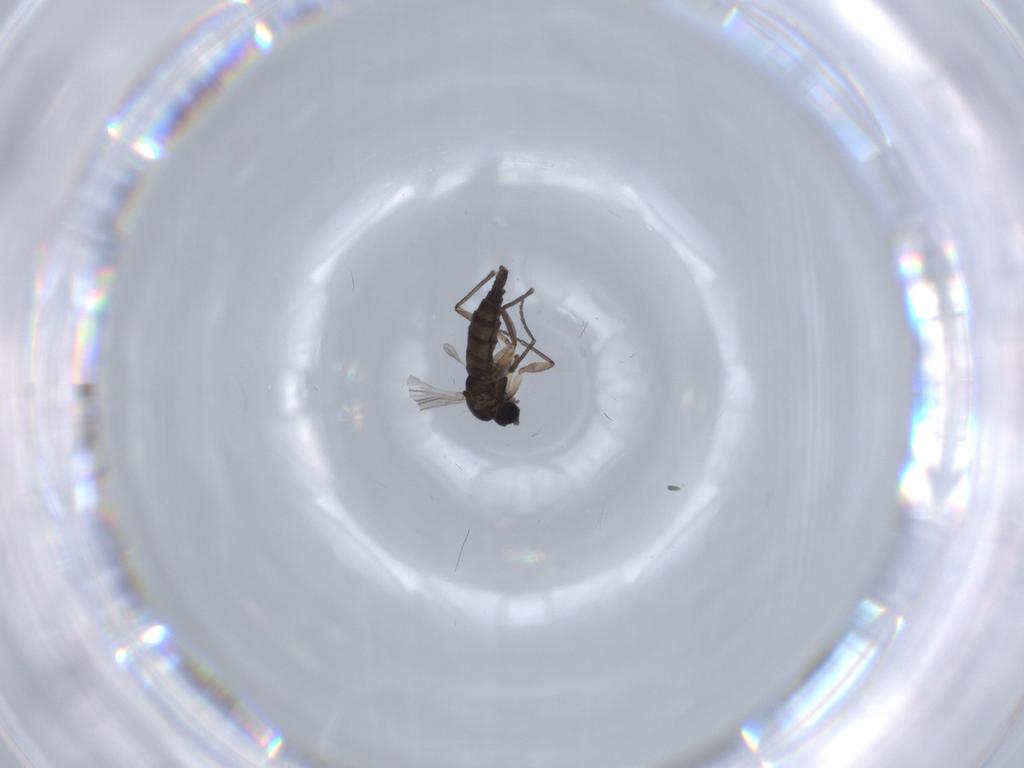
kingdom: Animalia
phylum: Arthropoda
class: Insecta
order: Diptera
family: Sciaridae
